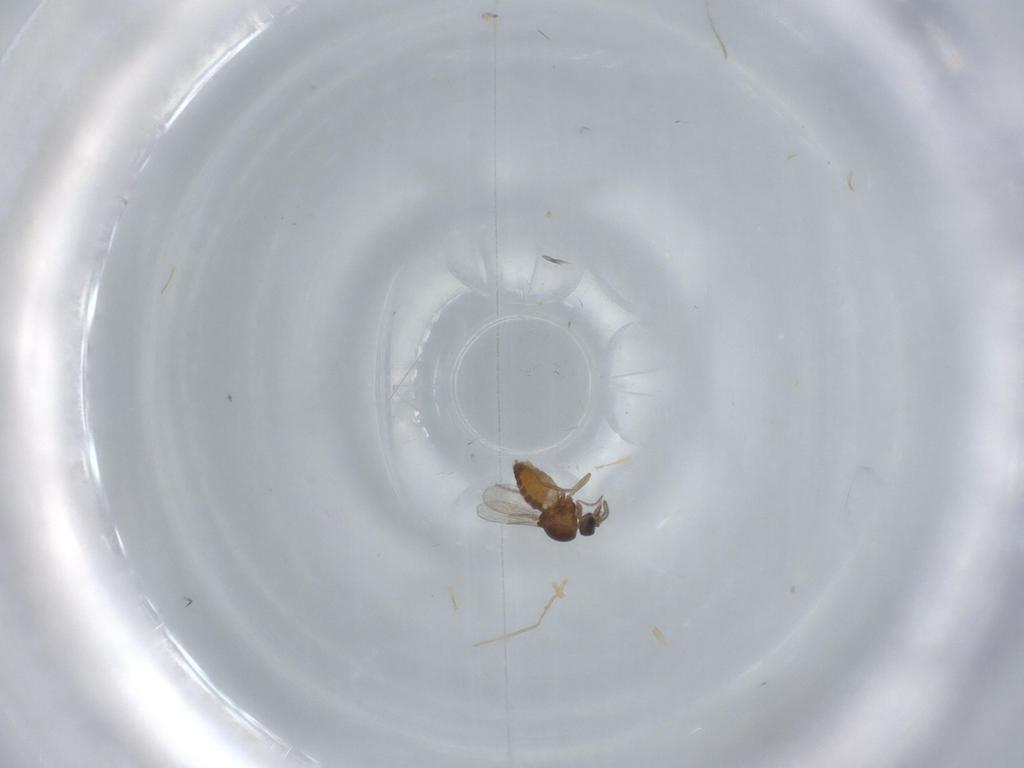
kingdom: Animalia
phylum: Arthropoda
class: Insecta
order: Diptera
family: Ceratopogonidae
